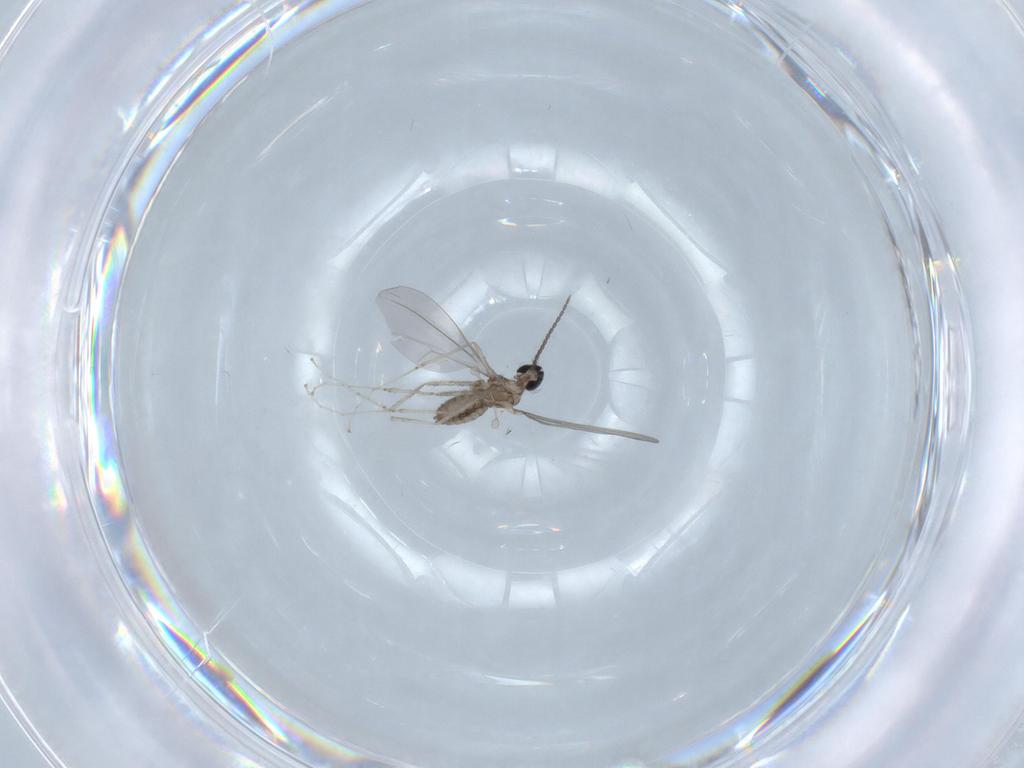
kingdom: Animalia
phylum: Arthropoda
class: Insecta
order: Diptera
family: Cecidomyiidae
